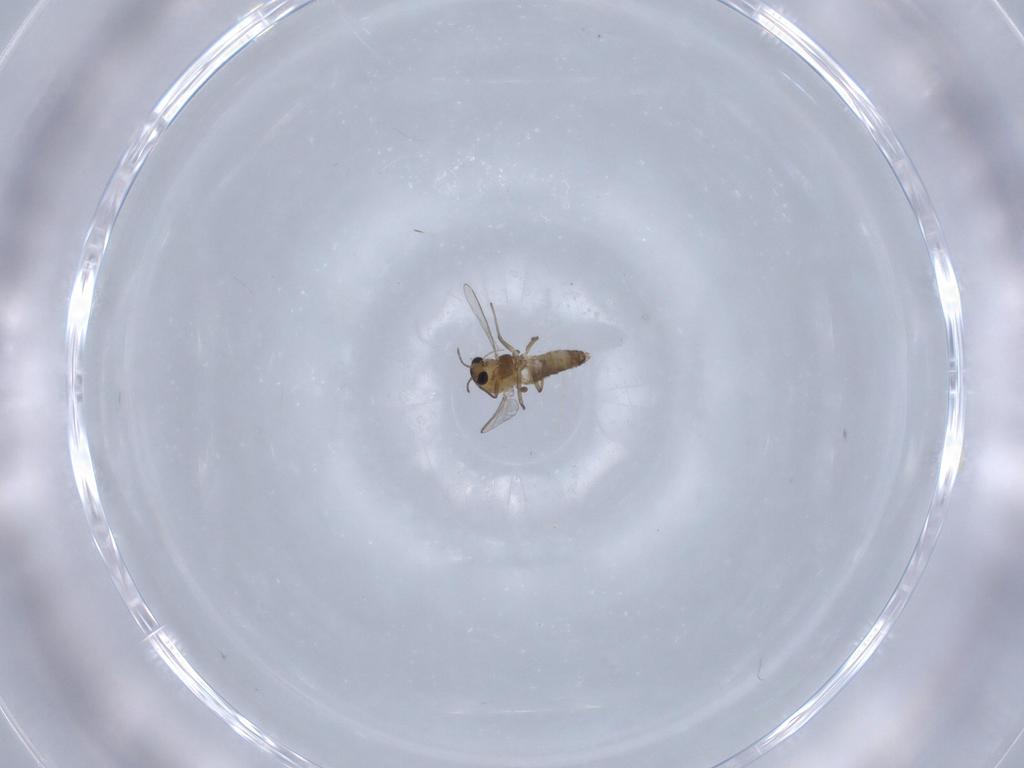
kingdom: Animalia
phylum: Arthropoda
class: Insecta
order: Diptera
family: Chironomidae
